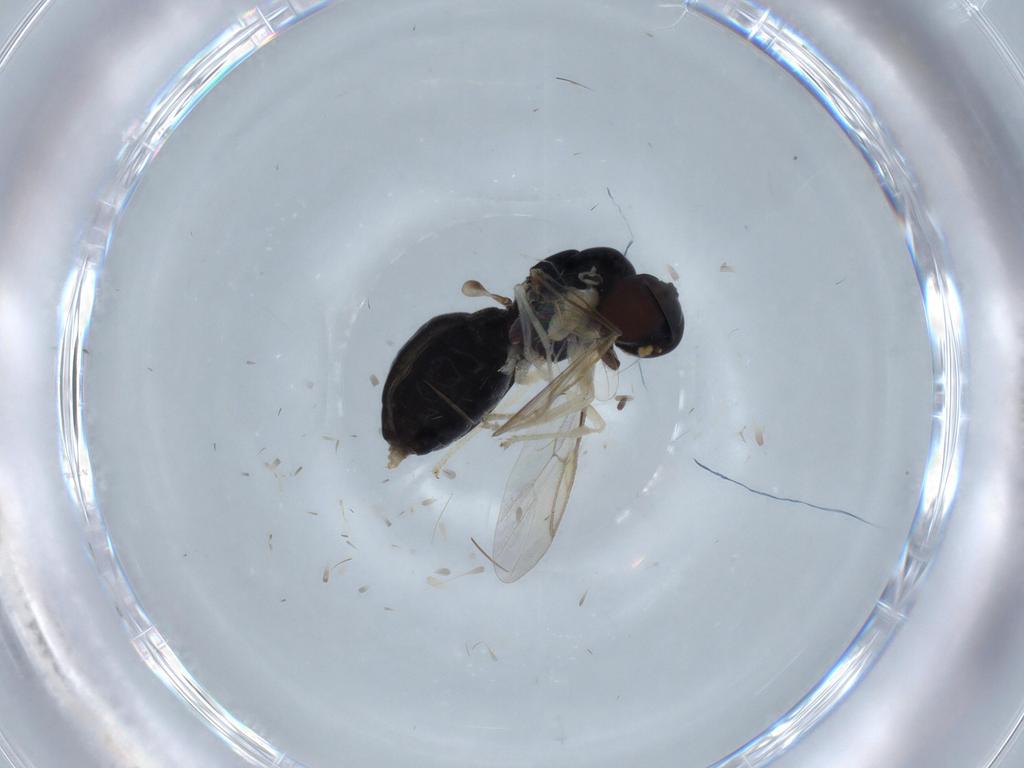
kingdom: Animalia
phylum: Arthropoda
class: Insecta
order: Diptera
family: Stratiomyidae
